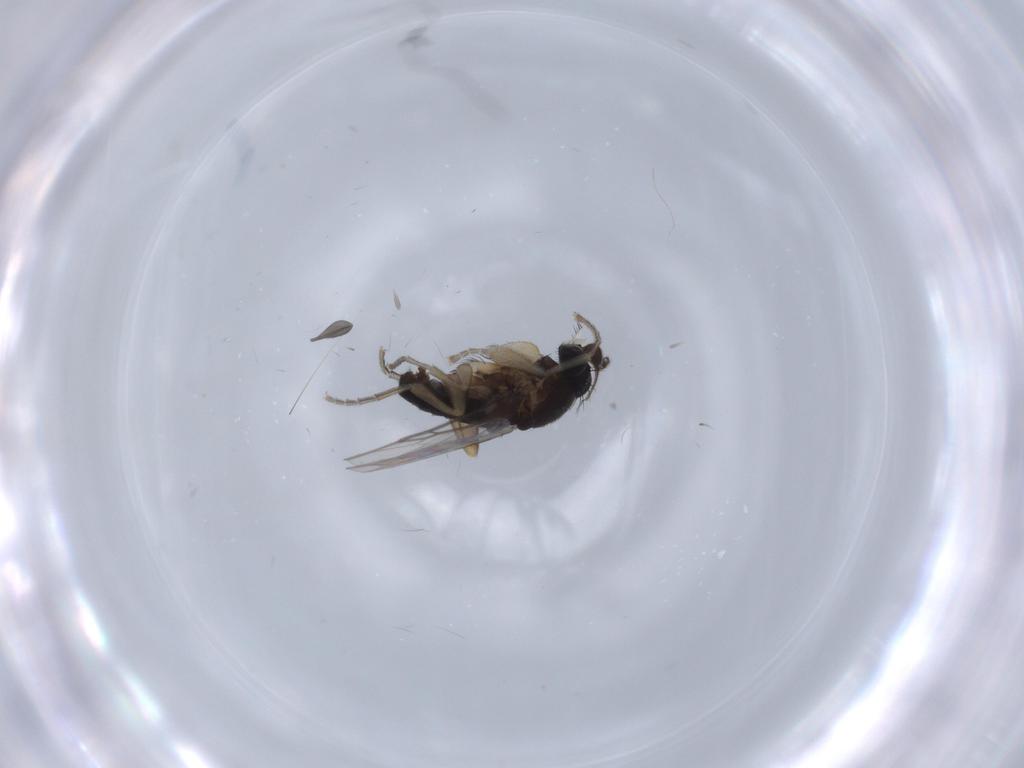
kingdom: Animalia
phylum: Arthropoda
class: Insecta
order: Diptera
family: Phoridae
